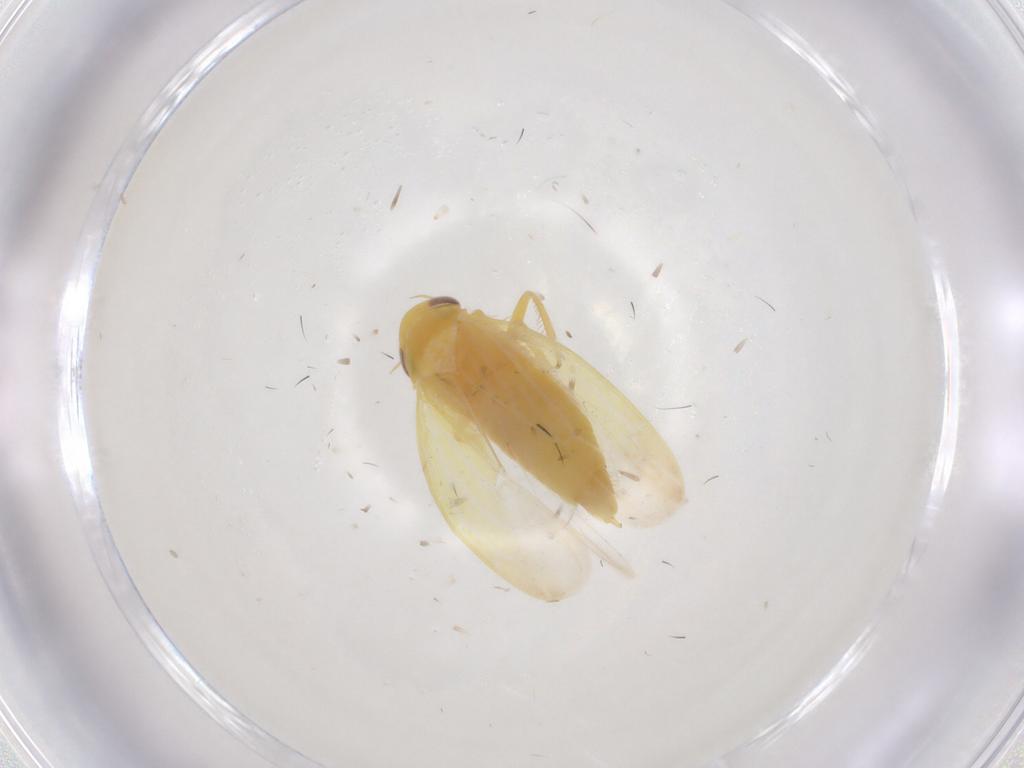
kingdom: Animalia
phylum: Arthropoda
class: Insecta
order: Hemiptera
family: Cicadellidae
